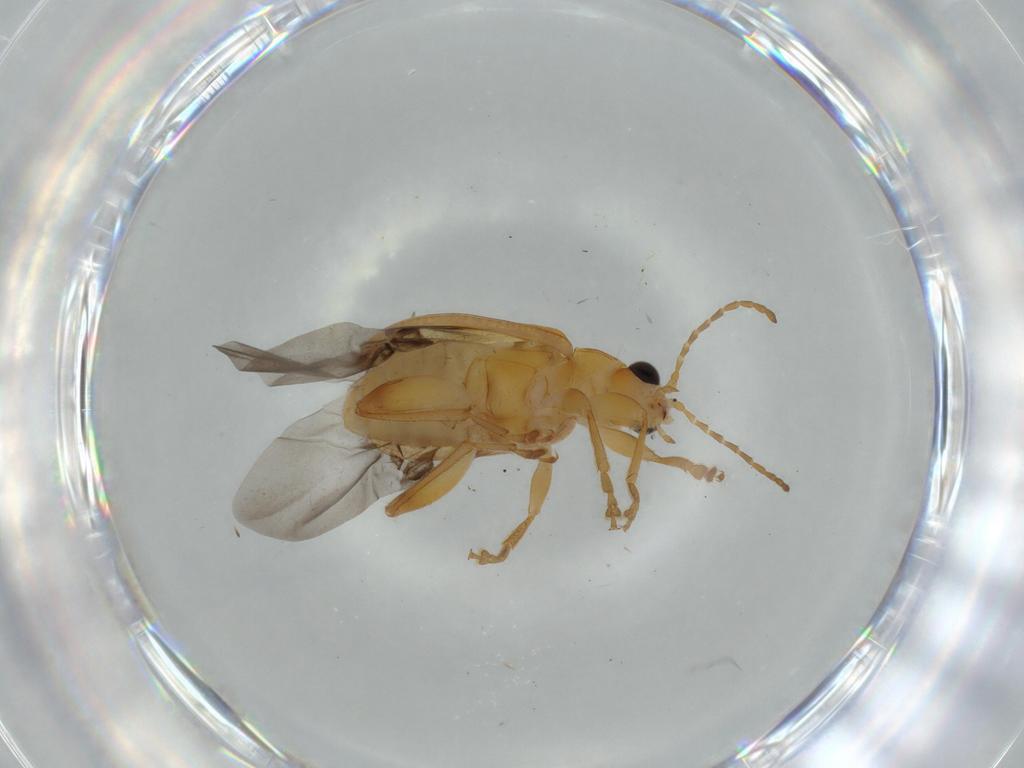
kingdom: Animalia
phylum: Arthropoda
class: Insecta
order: Coleoptera
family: Chrysomelidae
